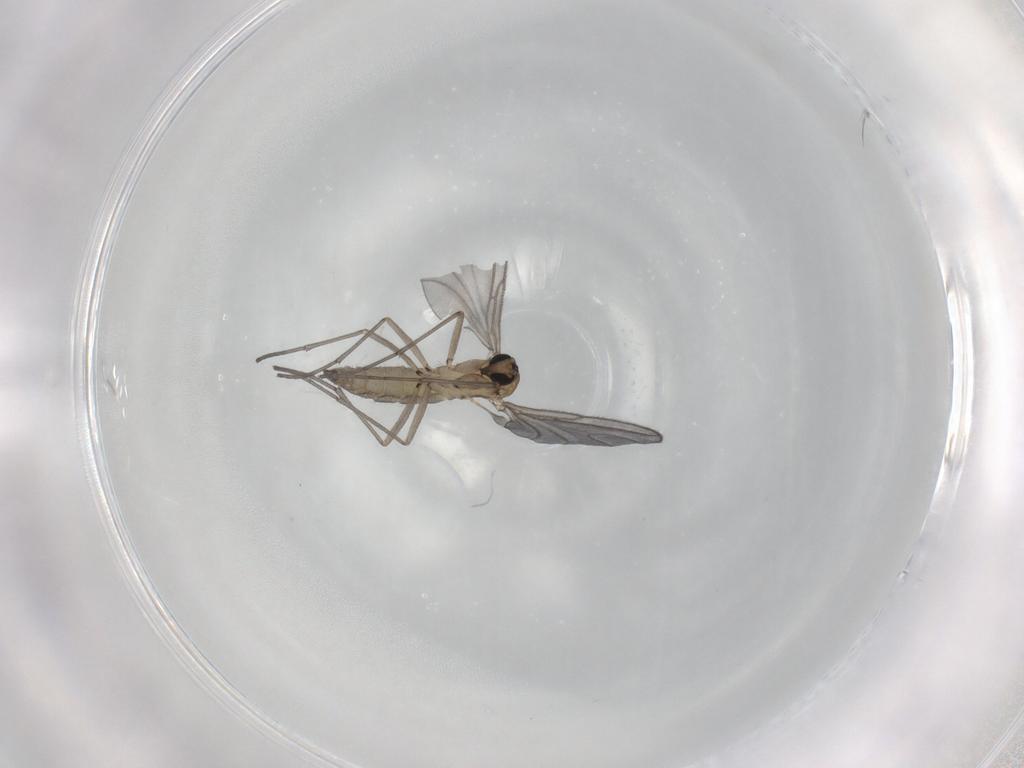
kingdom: Animalia
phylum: Arthropoda
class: Insecta
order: Diptera
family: Sciaridae
